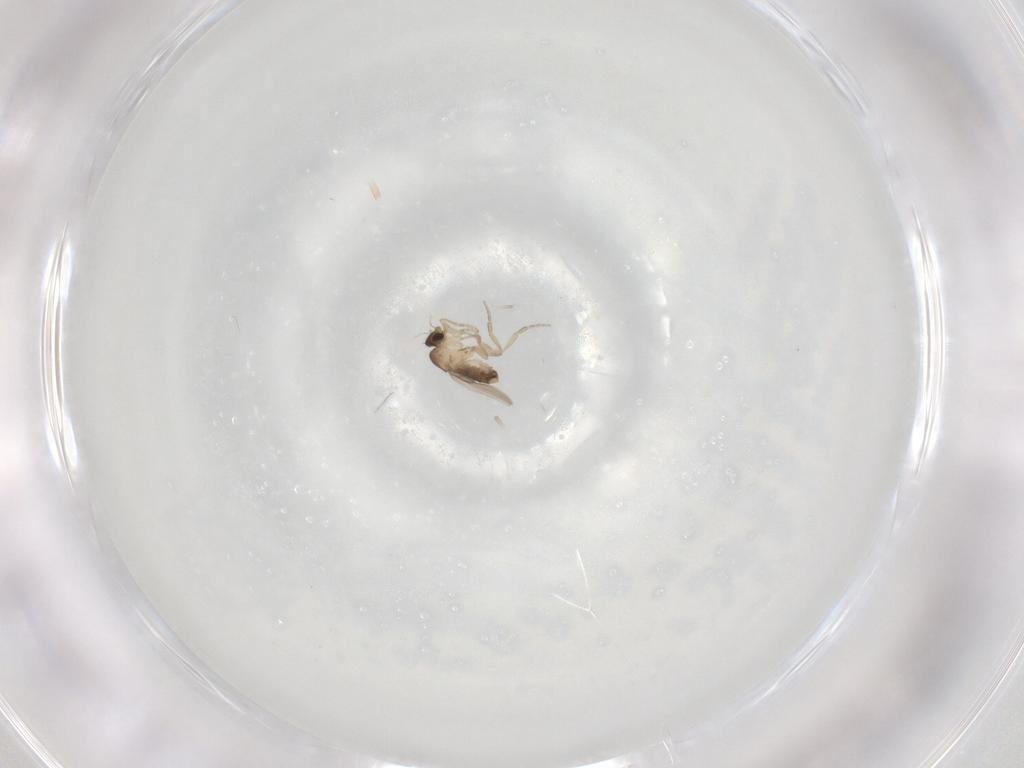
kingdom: Animalia
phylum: Arthropoda
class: Insecta
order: Diptera
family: Phoridae
